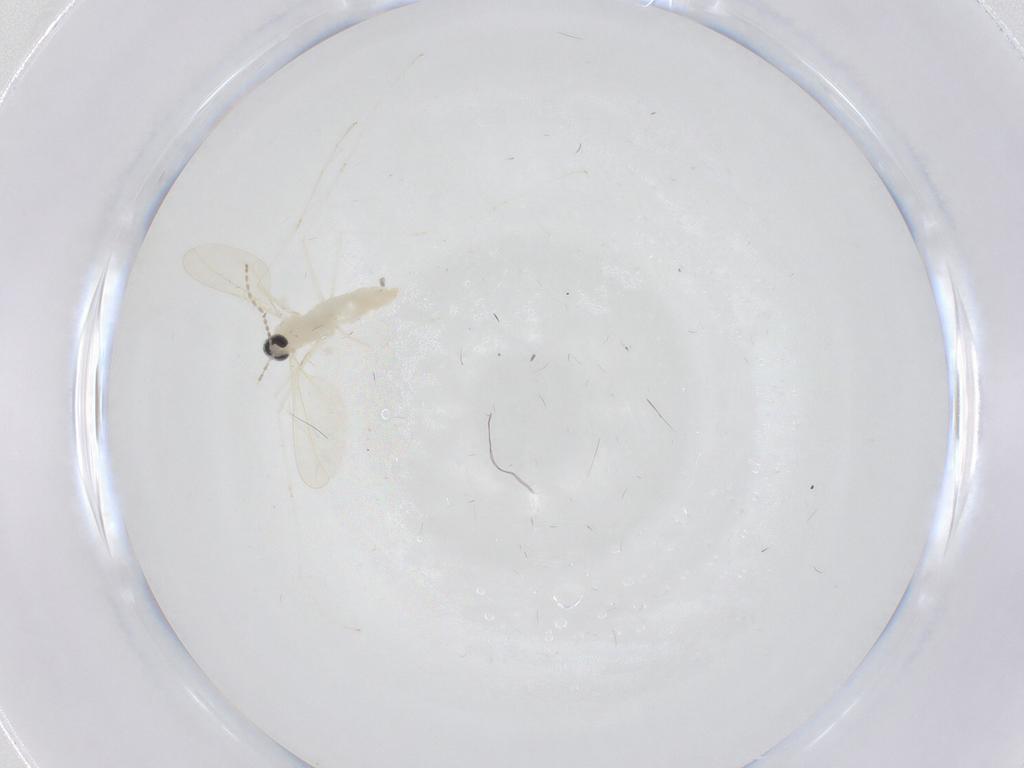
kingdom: Animalia
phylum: Arthropoda
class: Insecta
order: Diptera
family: Cecidomyiidae
